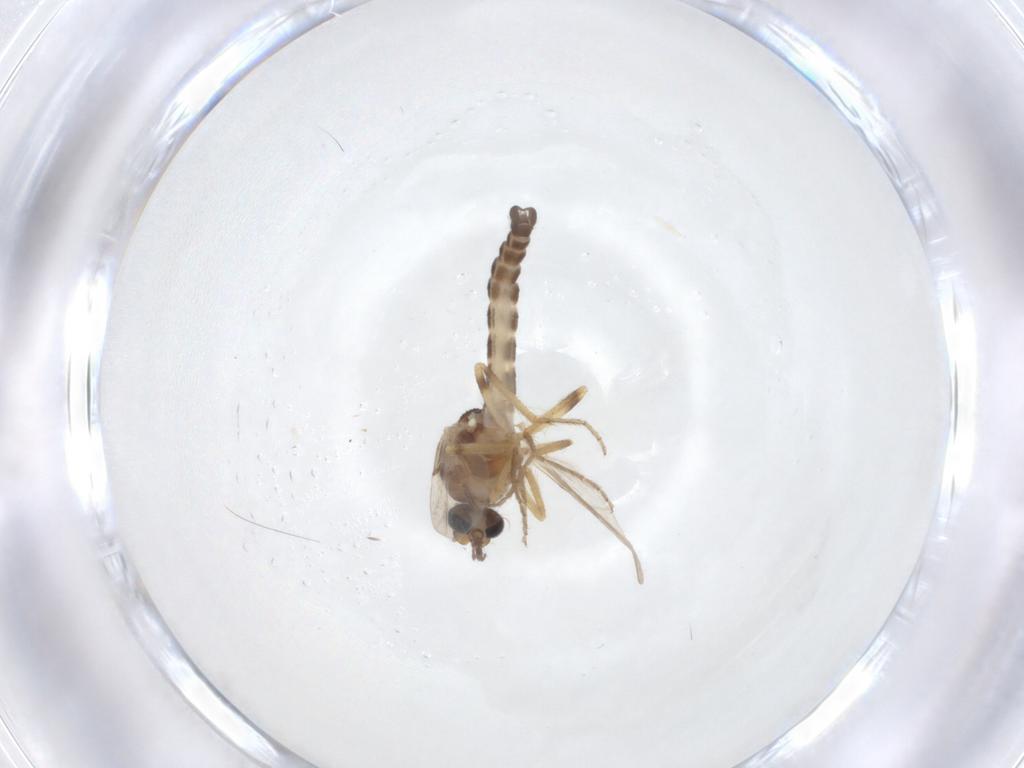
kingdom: Animalia
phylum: Arthropoda
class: Insecta
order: Diptera
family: Ceratopogonidae
